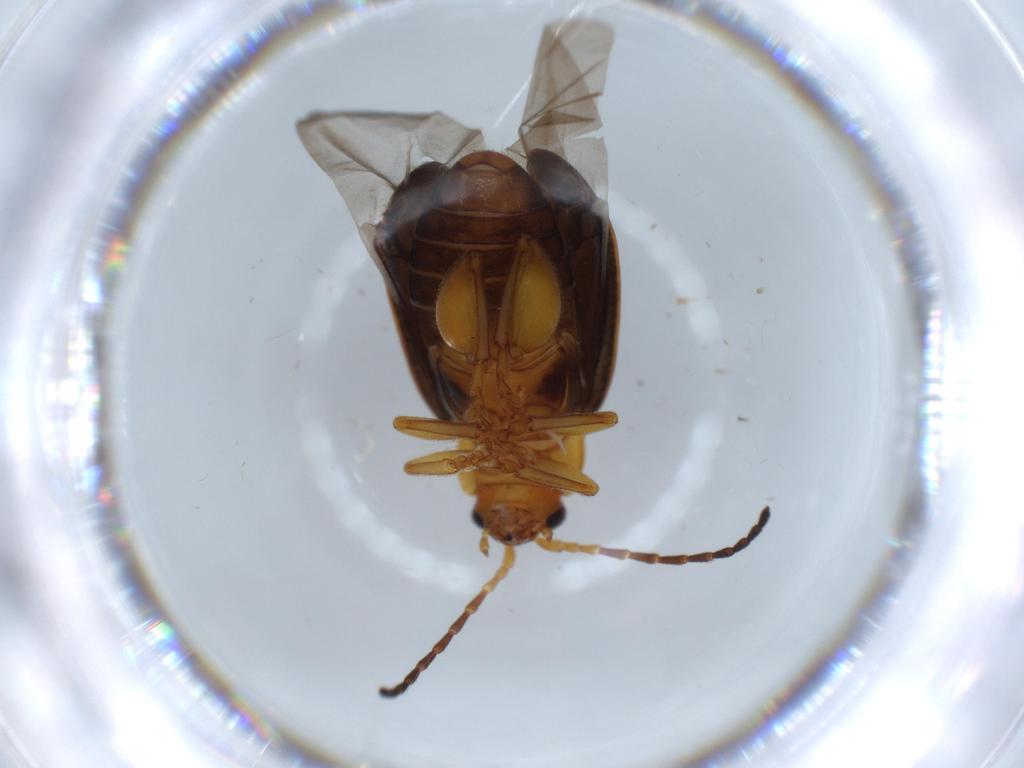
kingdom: Animalia
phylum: Arthropoda
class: Insecta
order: Coleoptera
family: Chrysomelidae
